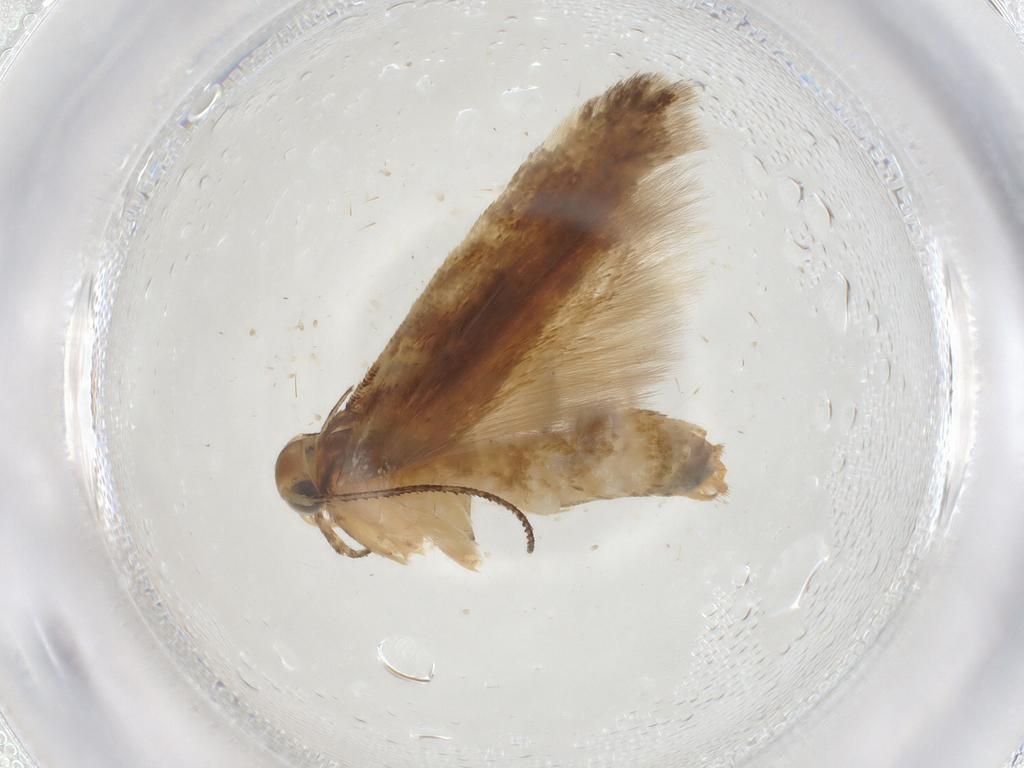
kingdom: Animalia
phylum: Arthropoda
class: Insecta
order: Lepidoptera
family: Gelechiidae
